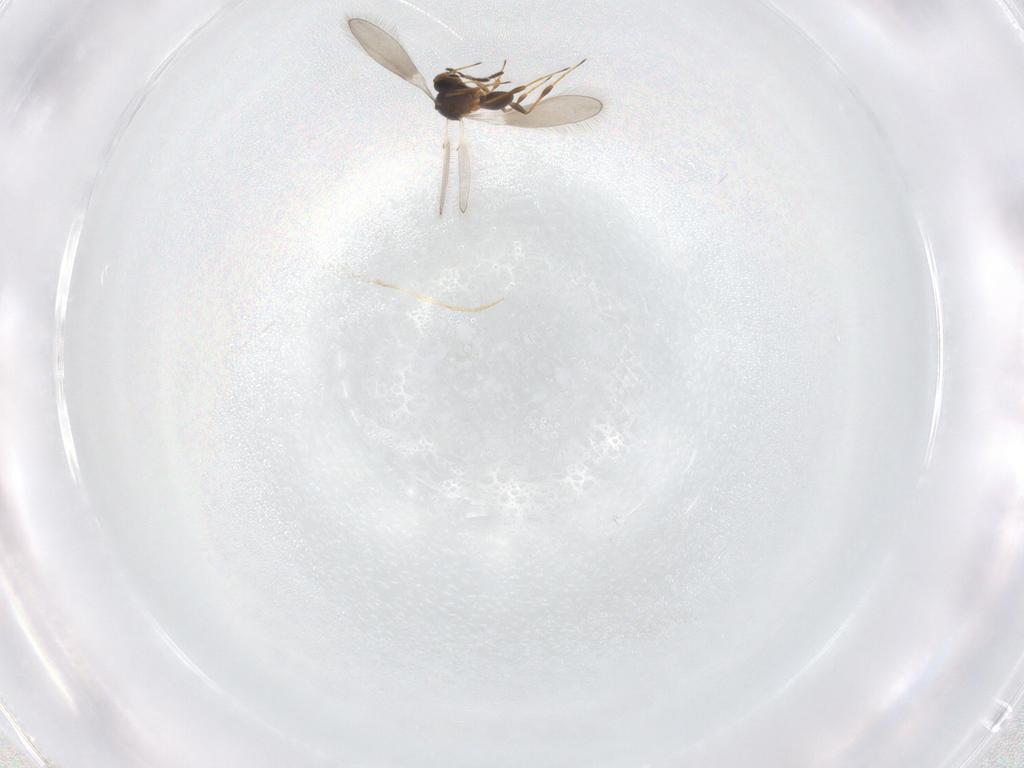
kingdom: Animalia
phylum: Arthropoda
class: Insecta
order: Hymenoptera
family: Platygastridae
